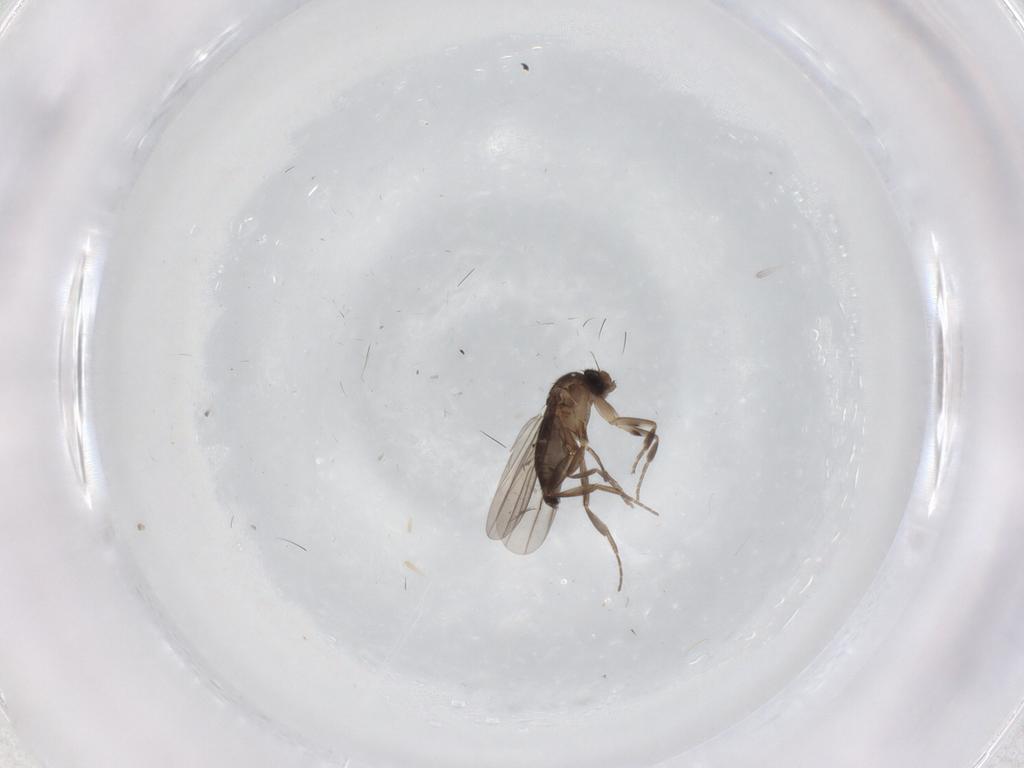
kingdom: Animalia
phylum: Arthropoda
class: Insecta
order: Diptera
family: Phoridae
